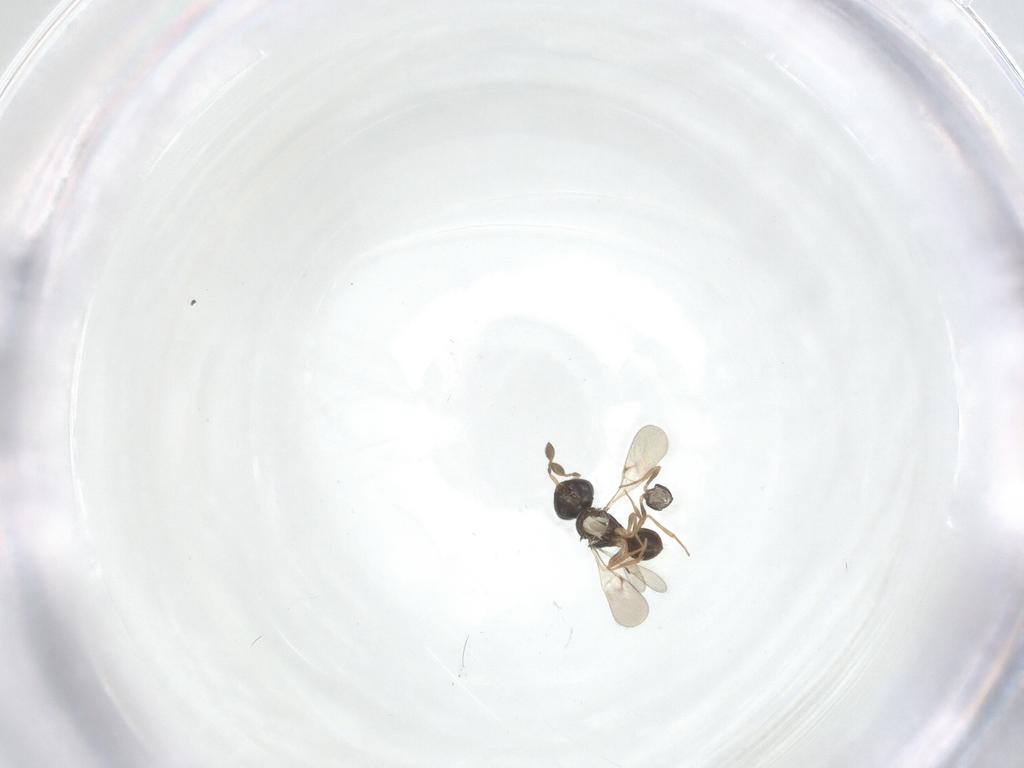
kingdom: Animalia
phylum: Arthropoda
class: Insecta
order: Hymenoptera
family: Scelionidae
